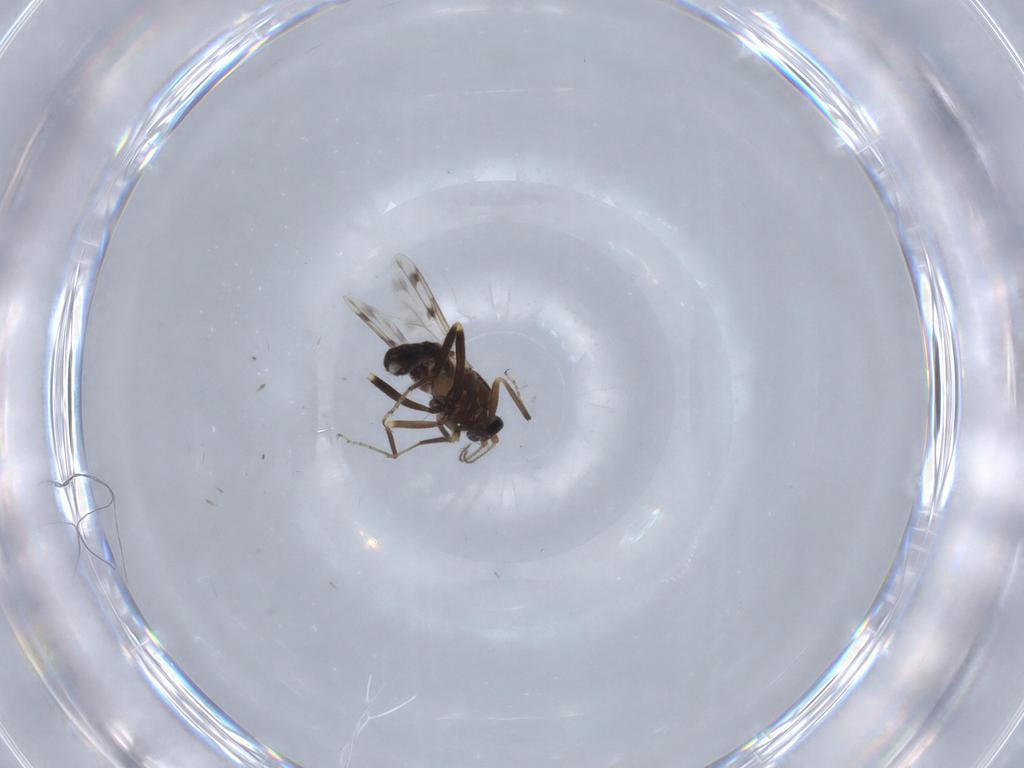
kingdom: Animalia
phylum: Arthropoda
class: Insecta
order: Diptera
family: Ceratopogonidae
